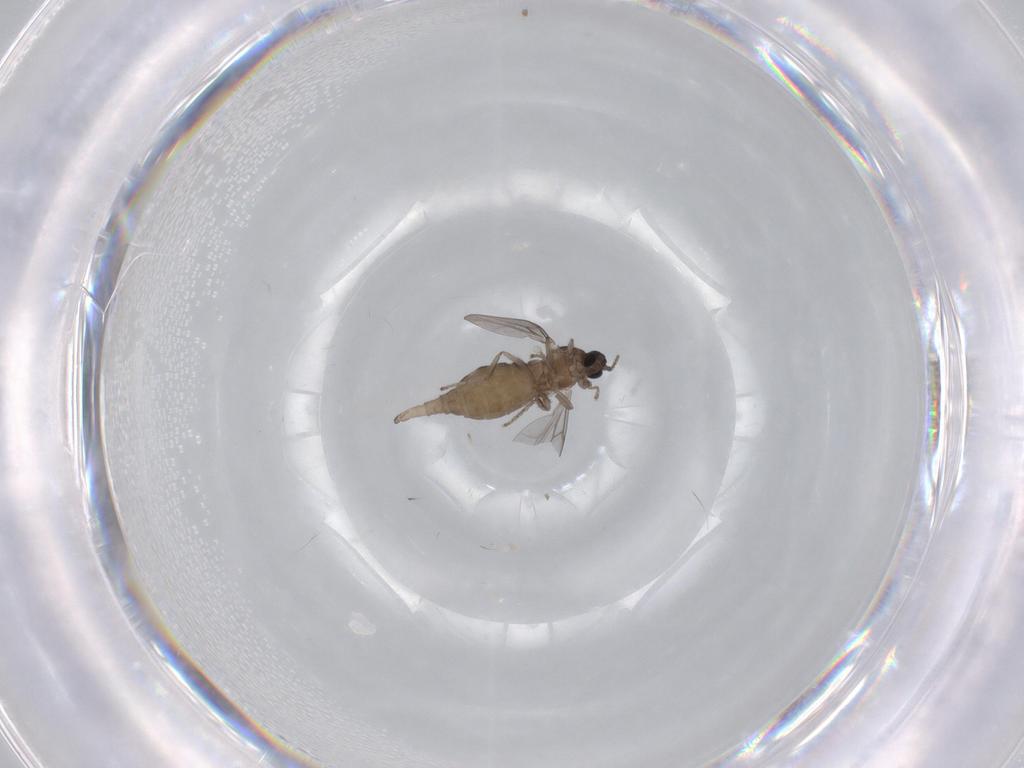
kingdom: Animalia
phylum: Arthropoda
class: Insecta
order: Diptera
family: Cecidomyiidae
